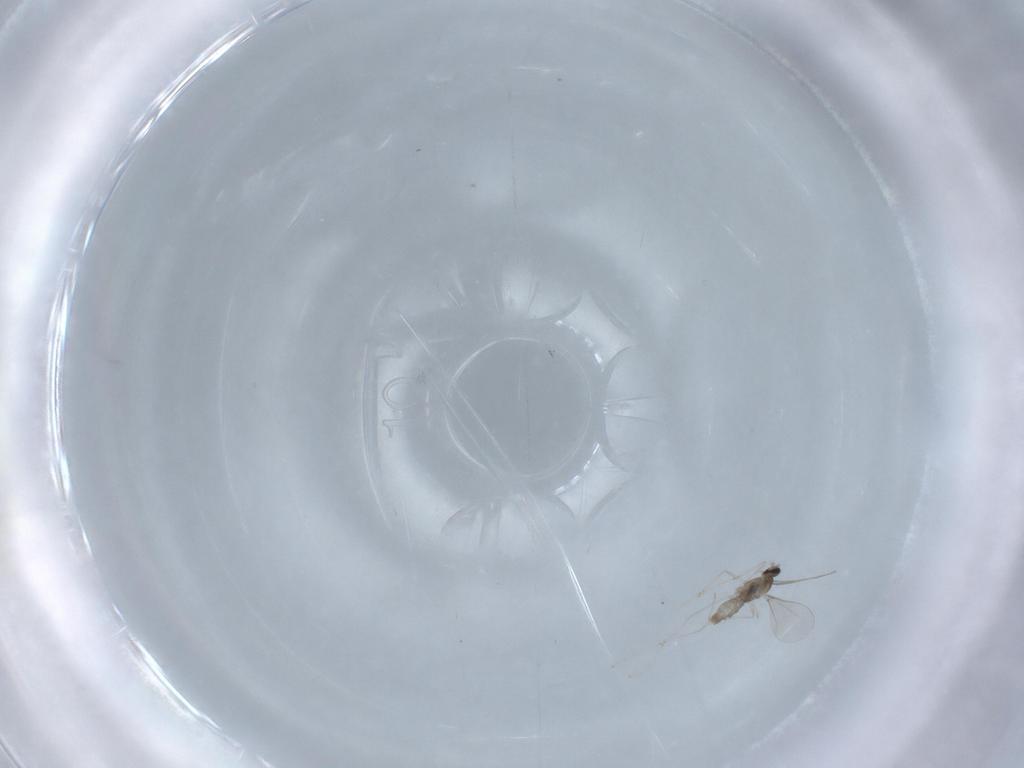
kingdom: Animalia
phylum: Arthropoda
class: Insecta
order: Diptera
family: Cecidomyiidae
